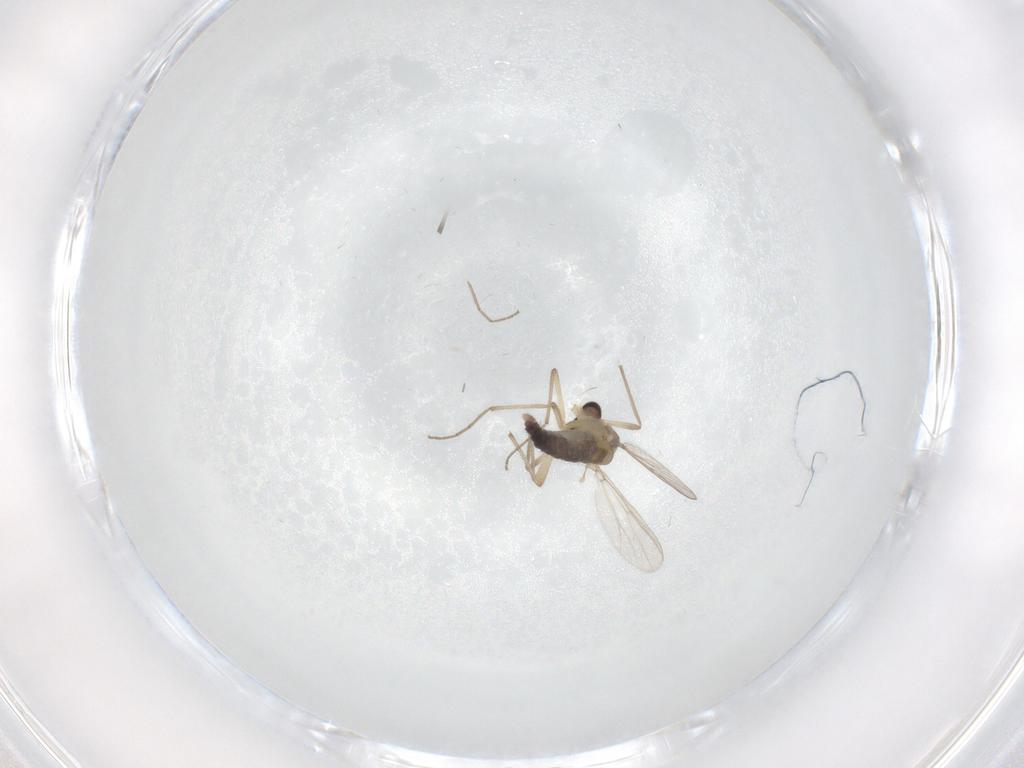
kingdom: Animalia
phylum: Arthropoda
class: Insecta
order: Diptera
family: Chironomidae
